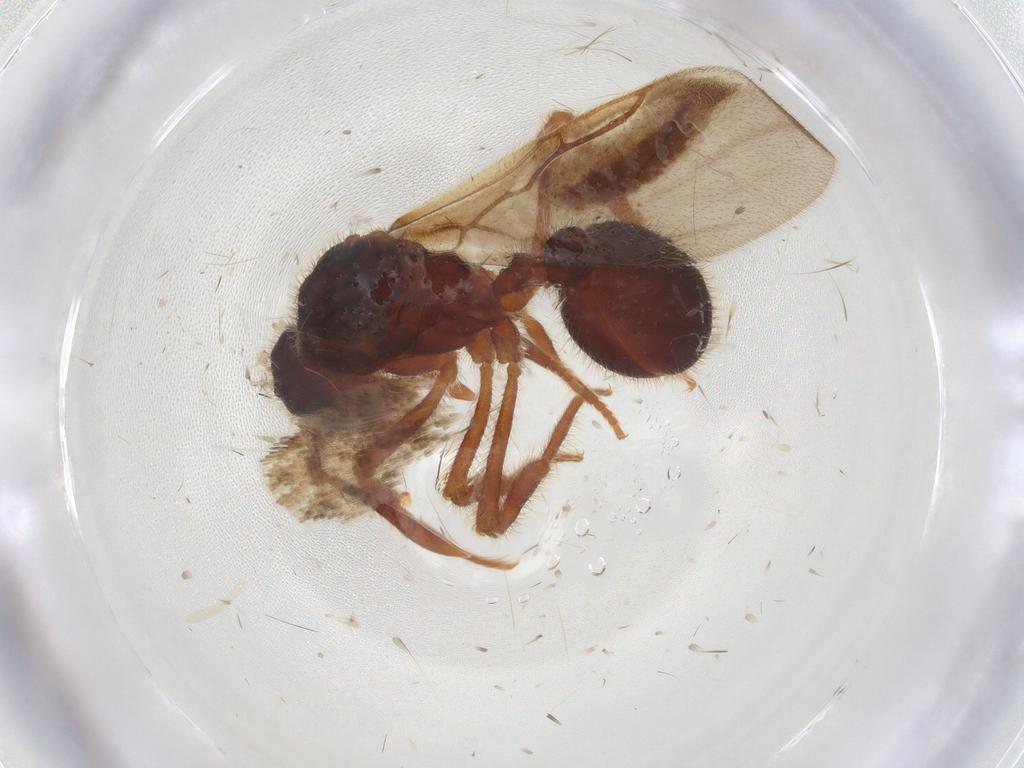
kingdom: Animalia
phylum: Arthropoda
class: Insecta
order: Hymenoptera
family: Formicidae
